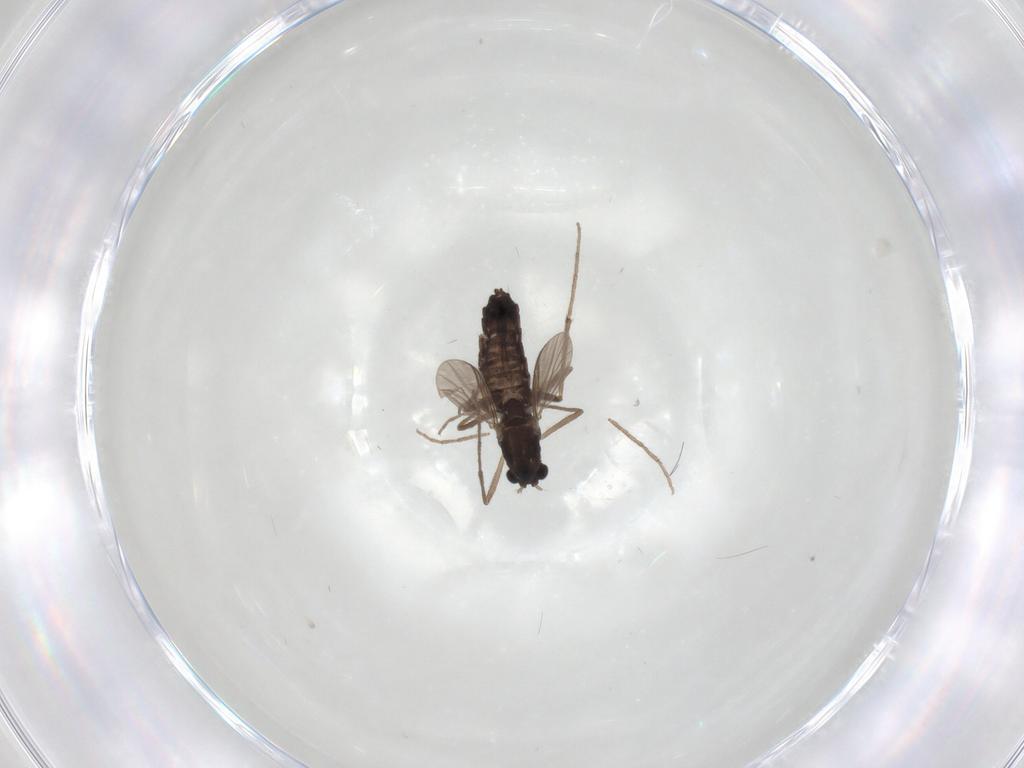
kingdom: Animalia
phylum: Arthropoda
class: Insecta
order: Diptera
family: Chironomidae
